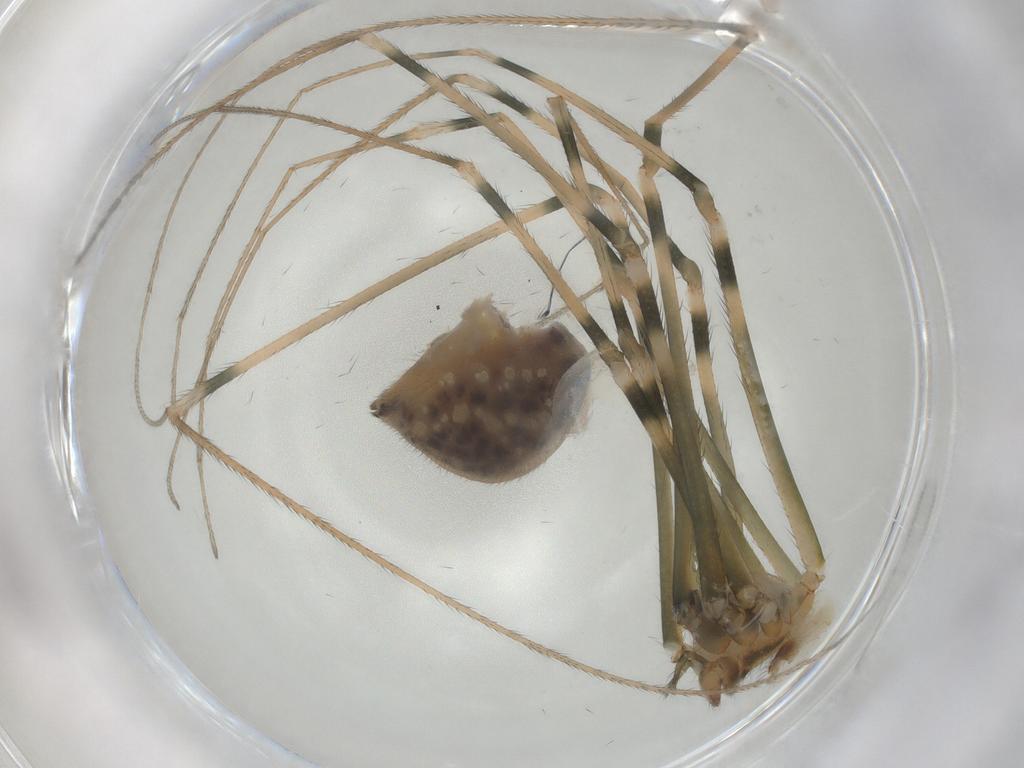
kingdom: Animalia
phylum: Arthropoda
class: Arachnida
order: Araneae
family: Pholcidae
